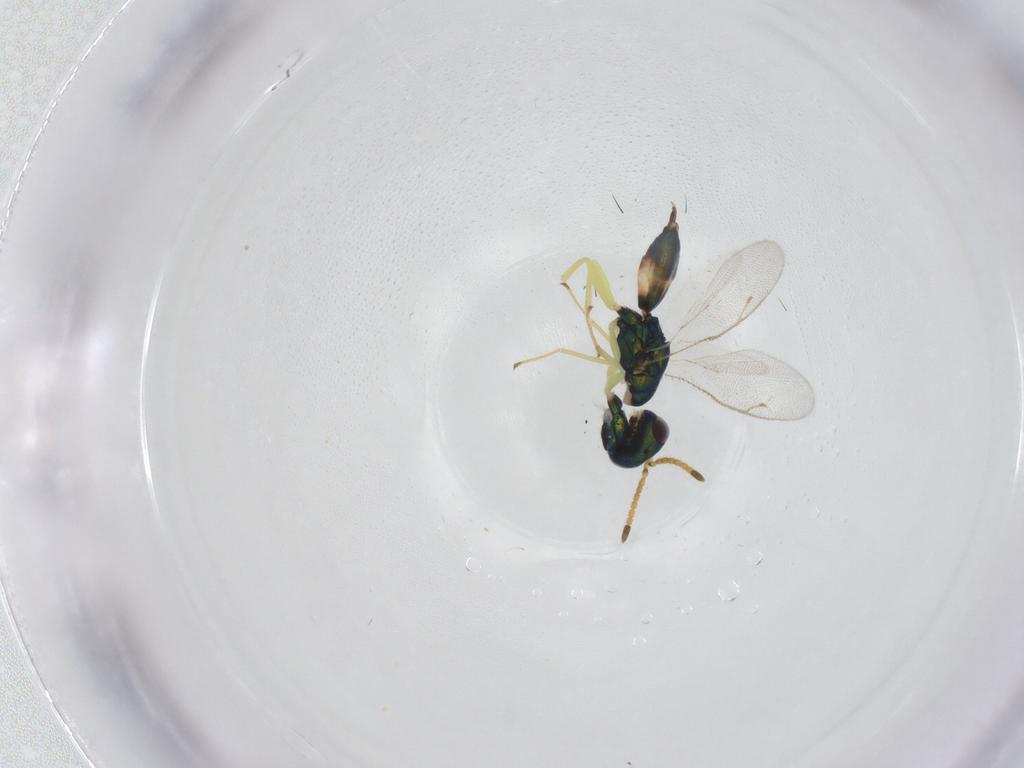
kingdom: Animalia
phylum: Arthropoda
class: Insecta
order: Hymenoptera
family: Pteromalidae
